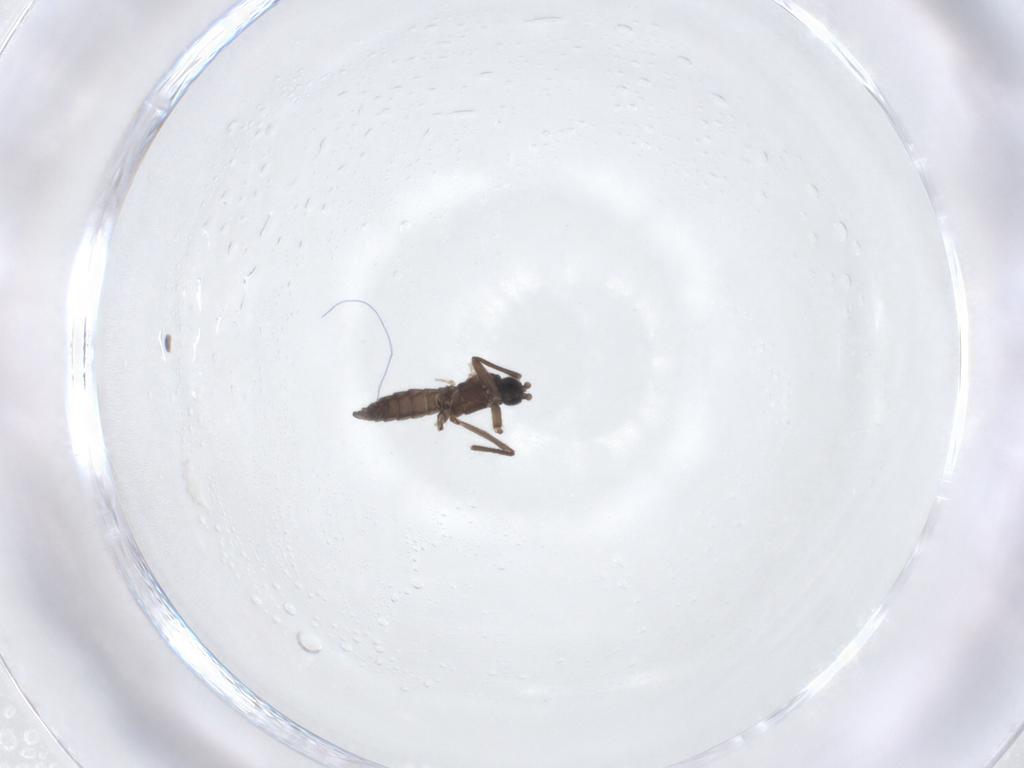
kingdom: Animalia
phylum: Arthropoda
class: Insecta
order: Diptera
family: Sciaridae
